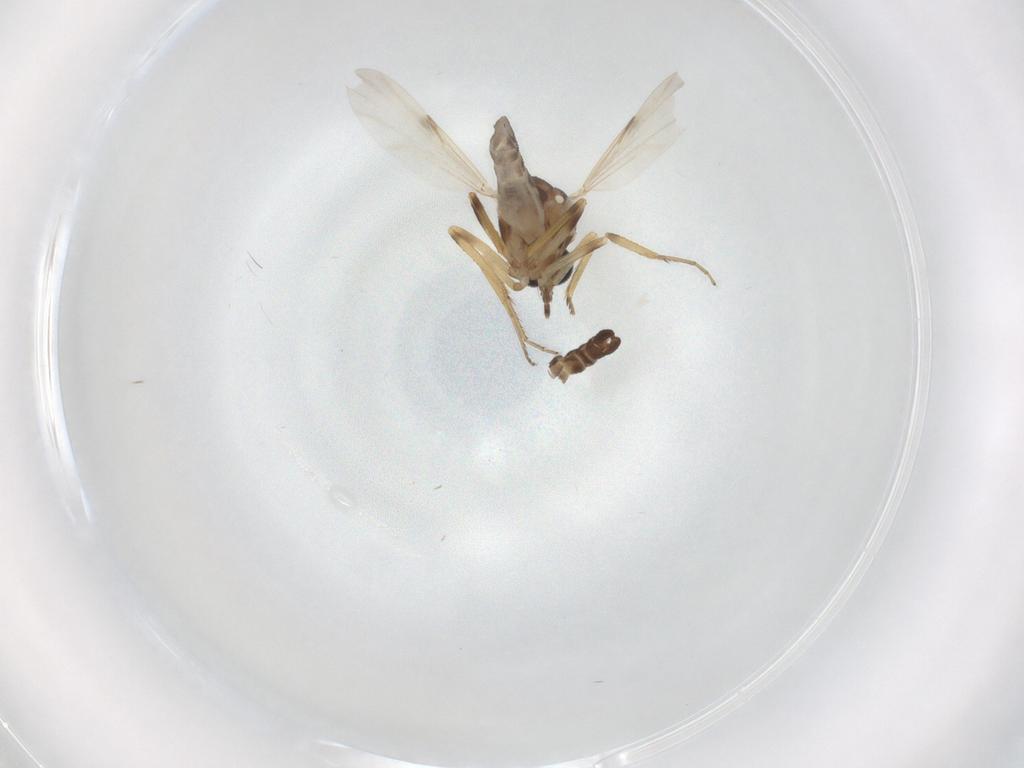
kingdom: Animalia
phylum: Arthropoda
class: Insecta
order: Diptera
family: Ceratopogonidae
